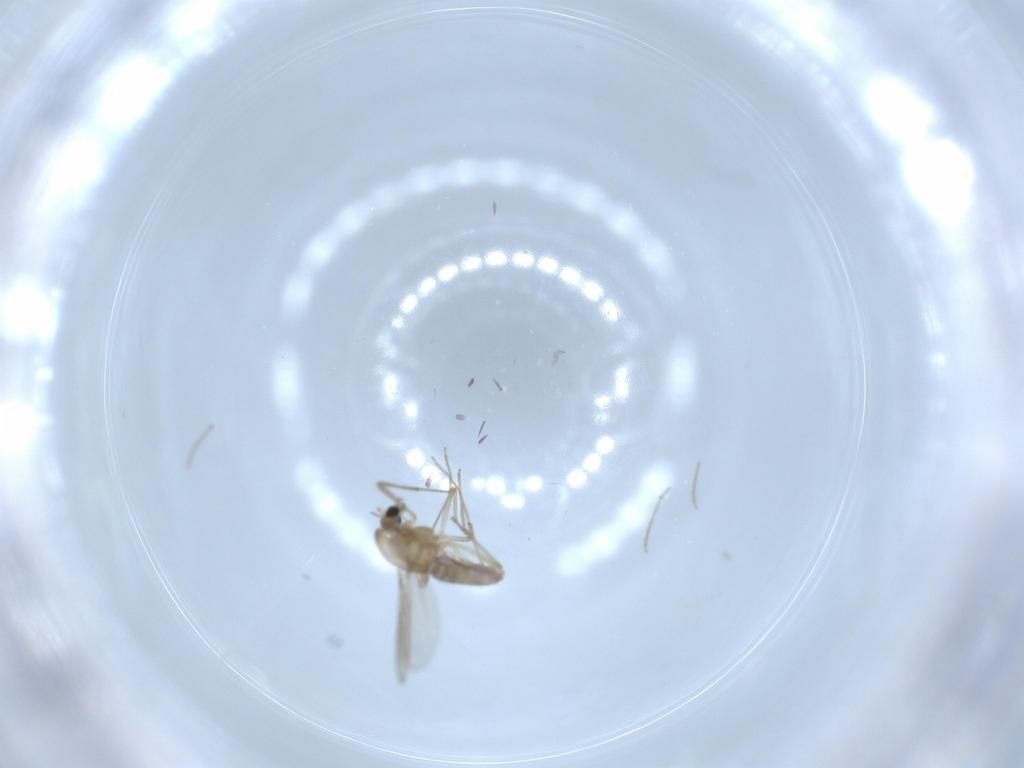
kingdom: Animalia
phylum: Arthropoda
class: Insecta
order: Diptera
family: Chironomidae
